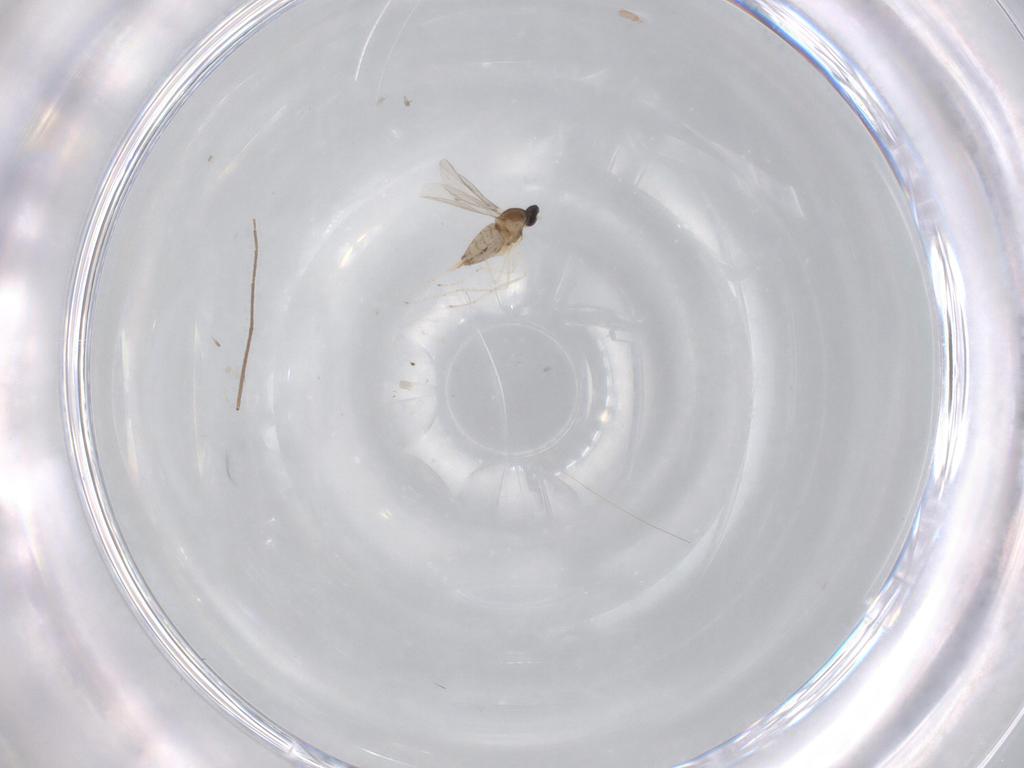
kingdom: Animalia
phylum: Arthropoda
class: Insecta
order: Diptera
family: Cecidomyiidae
